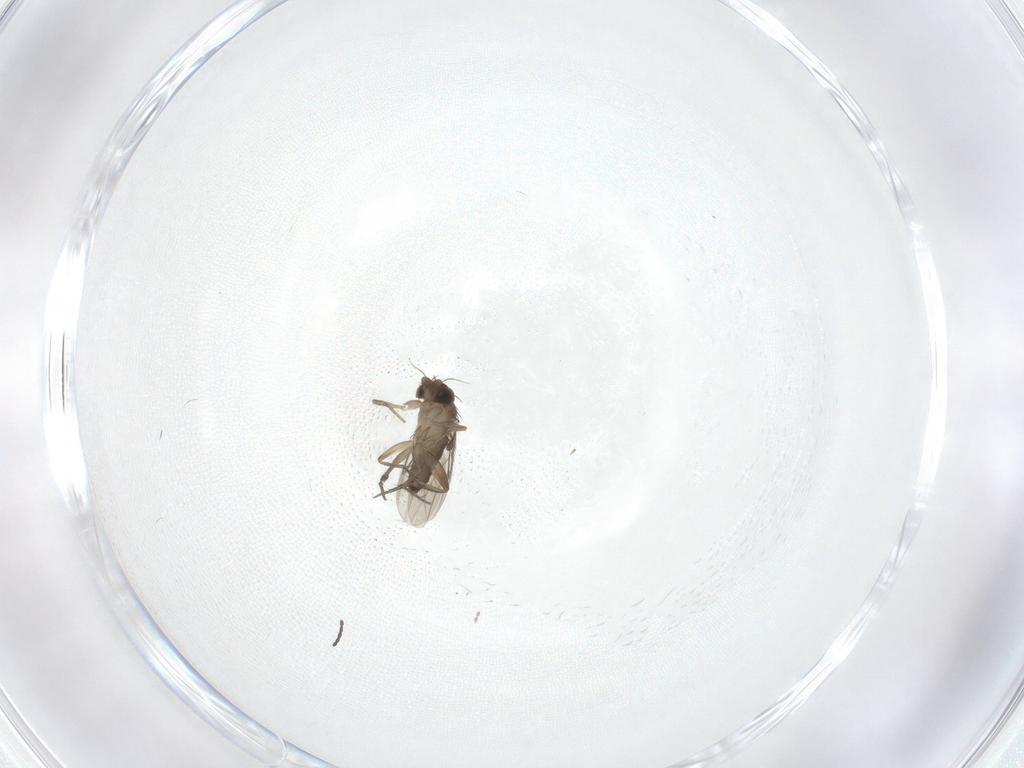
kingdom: Animalia
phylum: Arthropoda
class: Insecta
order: Diptera
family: Phoridae
